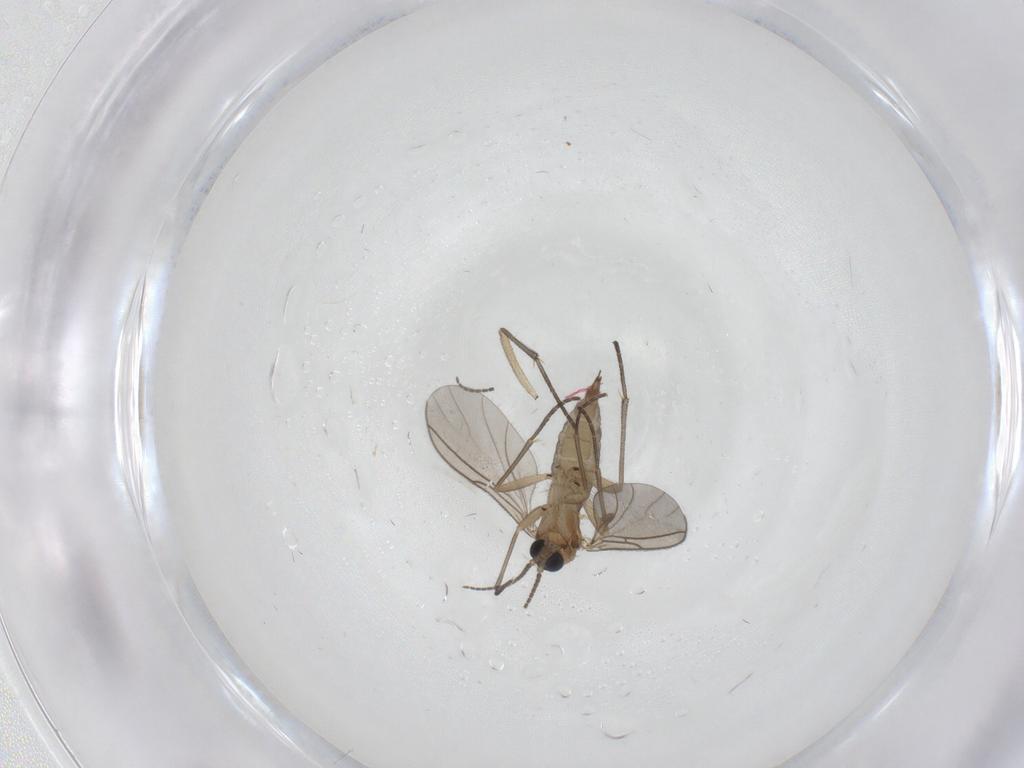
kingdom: Animalia
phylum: Arthropoda
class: Insecta
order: Diptera
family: Sciaridae
